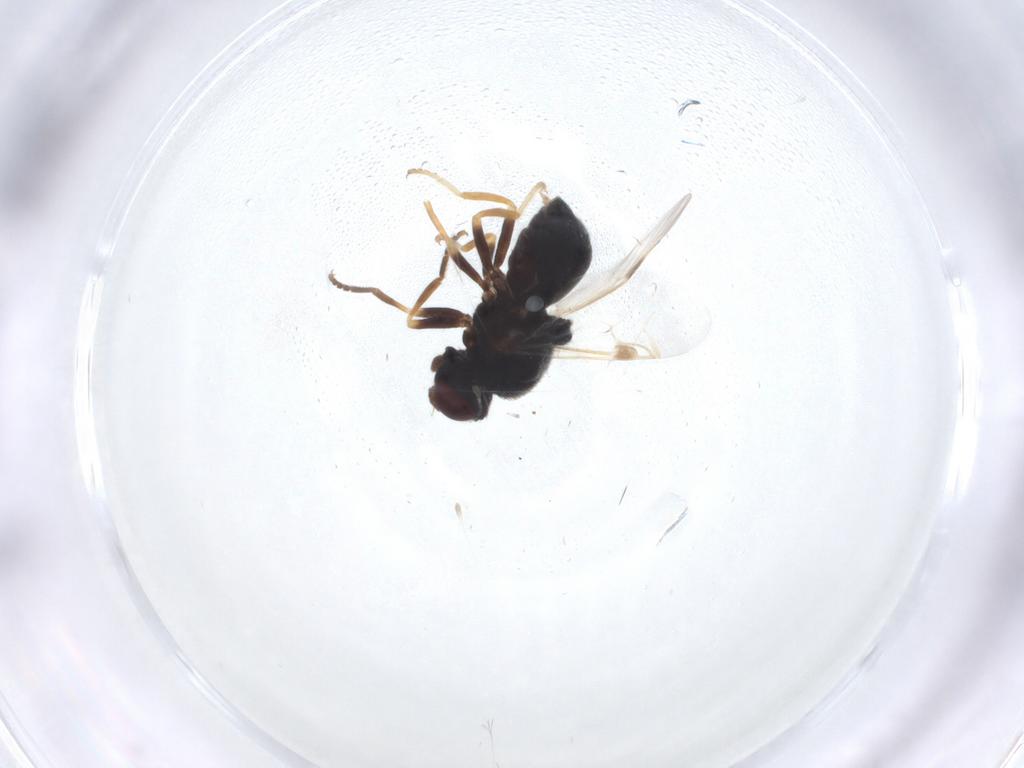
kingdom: Animalia
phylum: Arthropoda
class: Insecta
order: Diptera
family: Stratiomyidae
